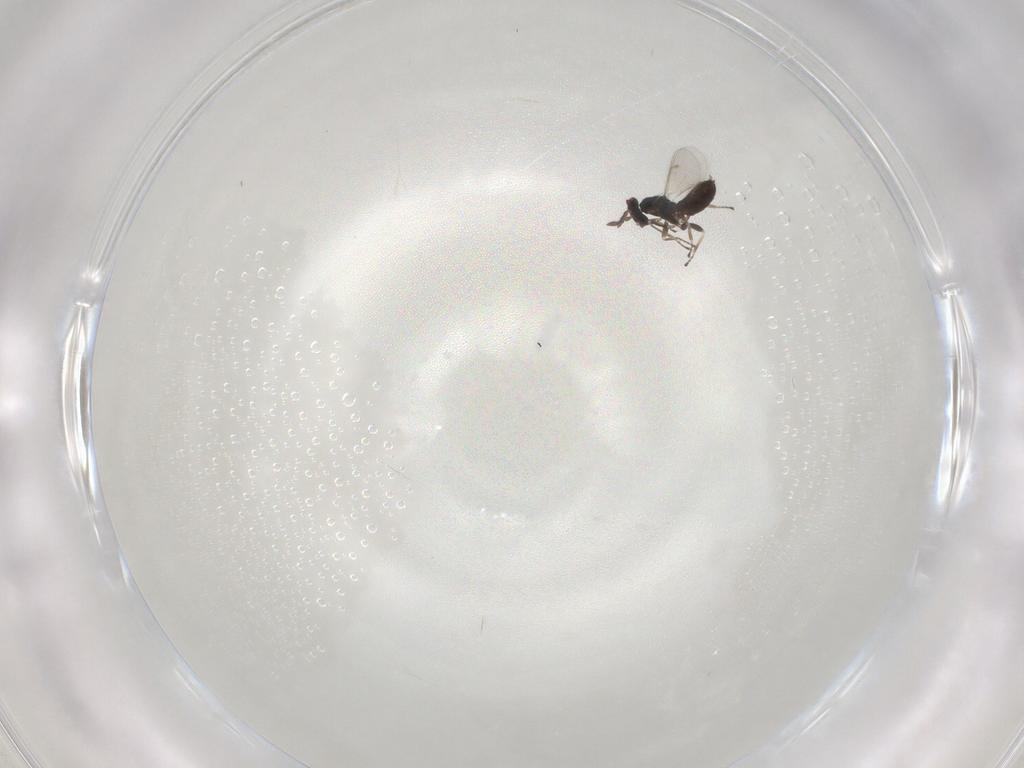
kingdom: Animalia
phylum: Arthropoda
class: Insecta
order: Hymenoptera
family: Eulophidae
